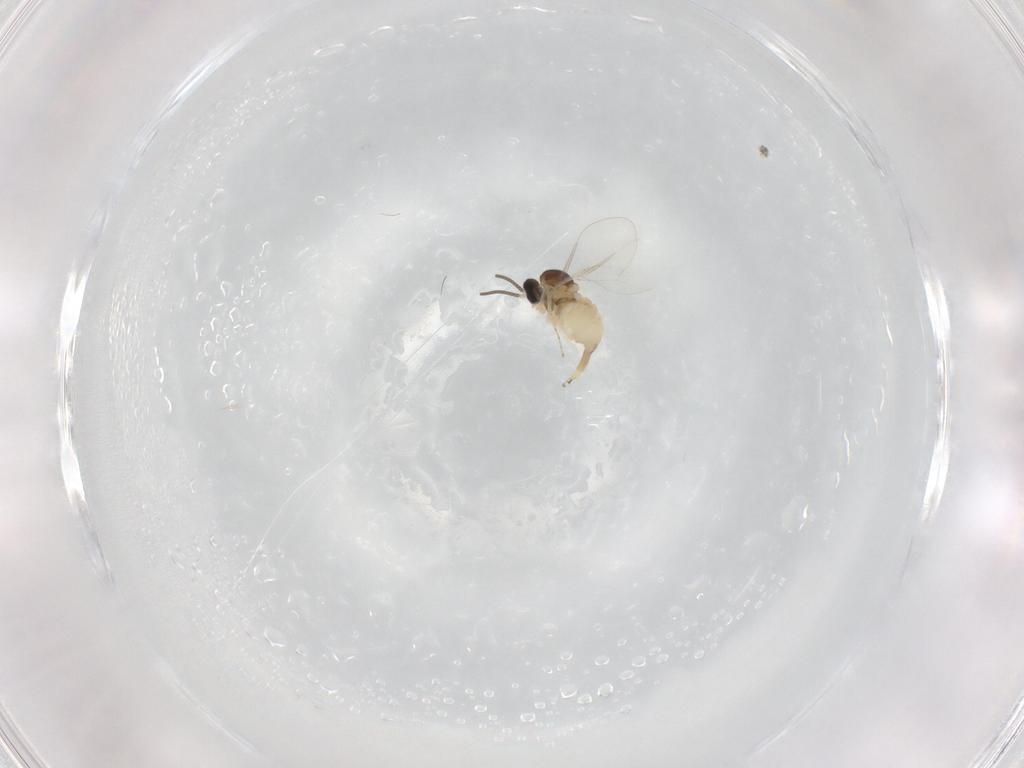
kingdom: Animalia
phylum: Arthropoda
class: Insecta
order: Diptera
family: Cecidomyiidae
